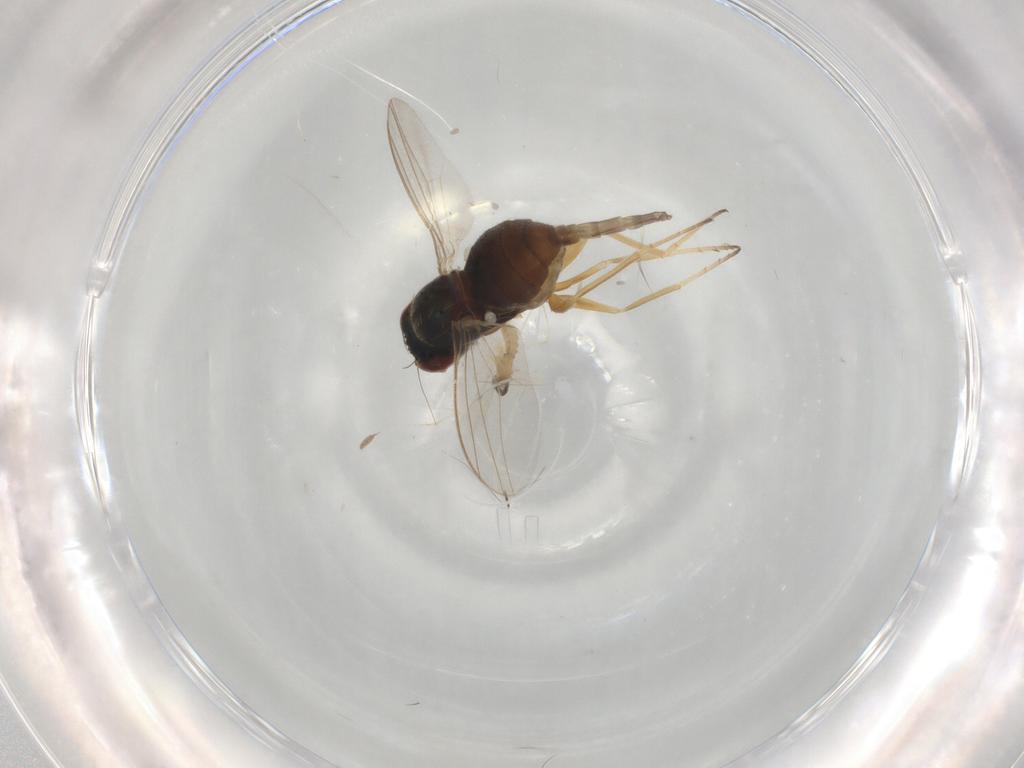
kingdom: Animalia
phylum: Arthropoda
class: Insecta
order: Diptera
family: Dolichopodidae
